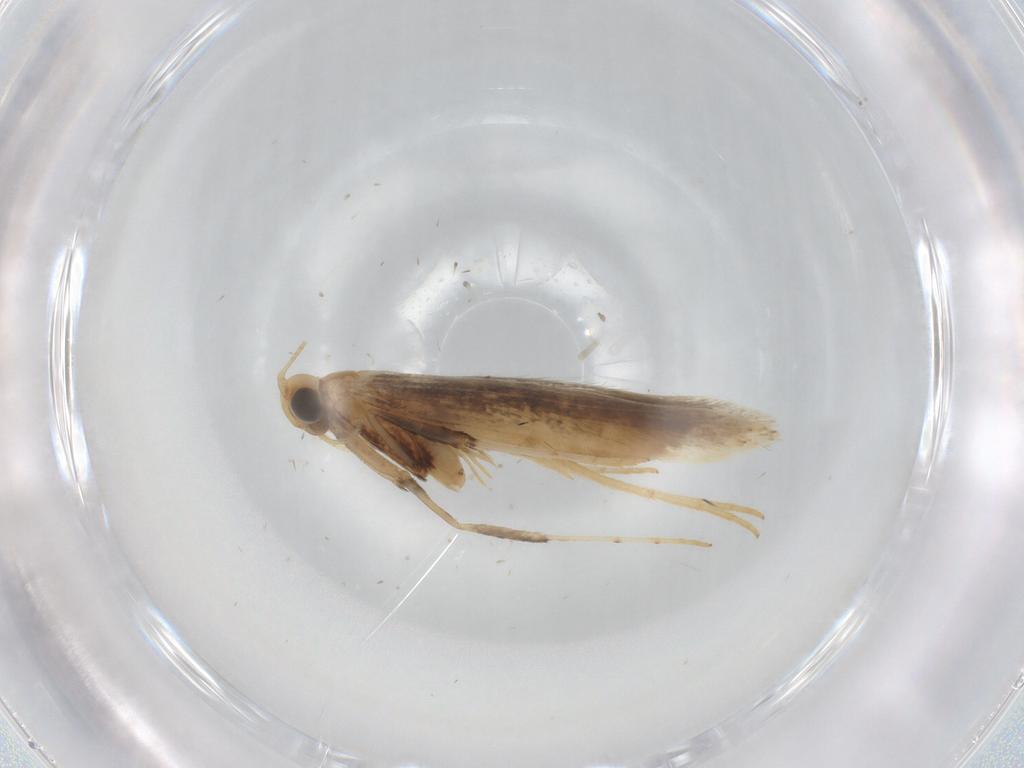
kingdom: Animalia
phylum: Arthropoda
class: Insecta
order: Lepidoptera
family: Gracillariidae
